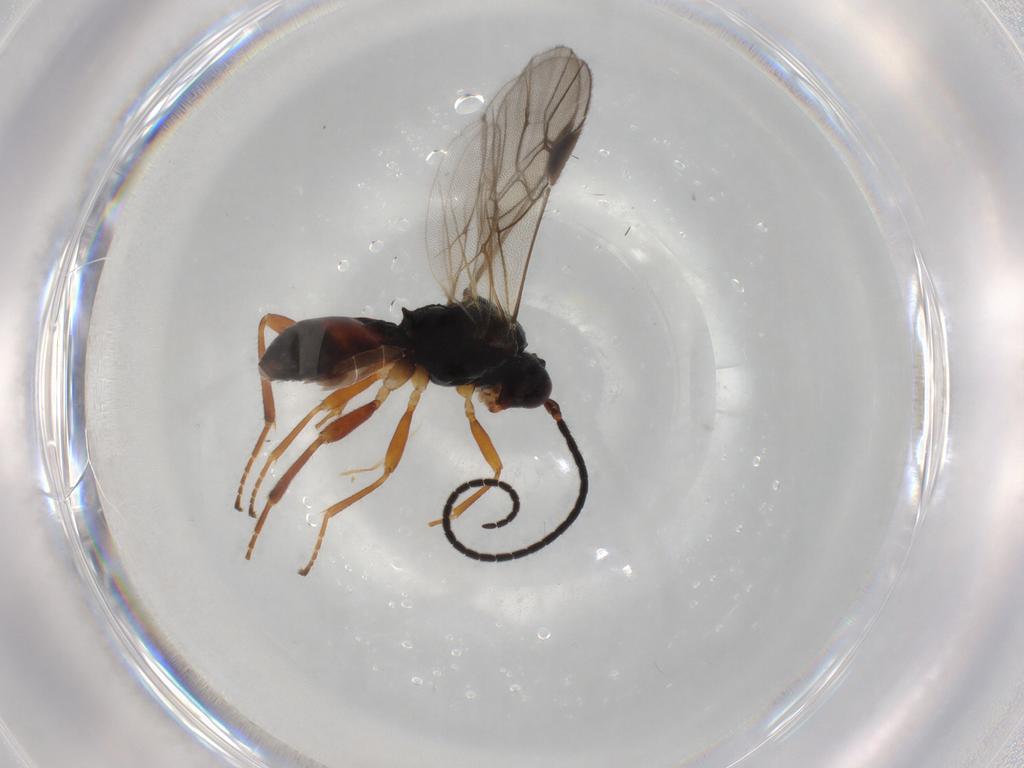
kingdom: Animalia
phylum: Arthropoda
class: Insecta
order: Hymenoptera
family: Braconidae
